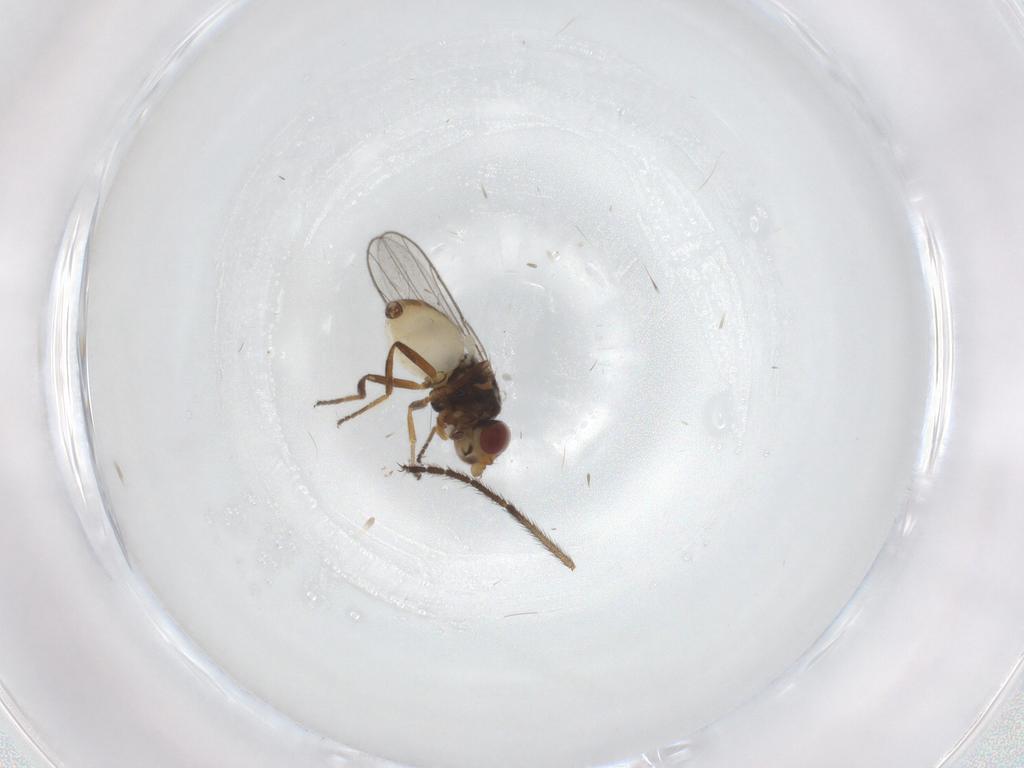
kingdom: Animalia
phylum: Arthropoda
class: Insecta
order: Diptera
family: Chloropidae
